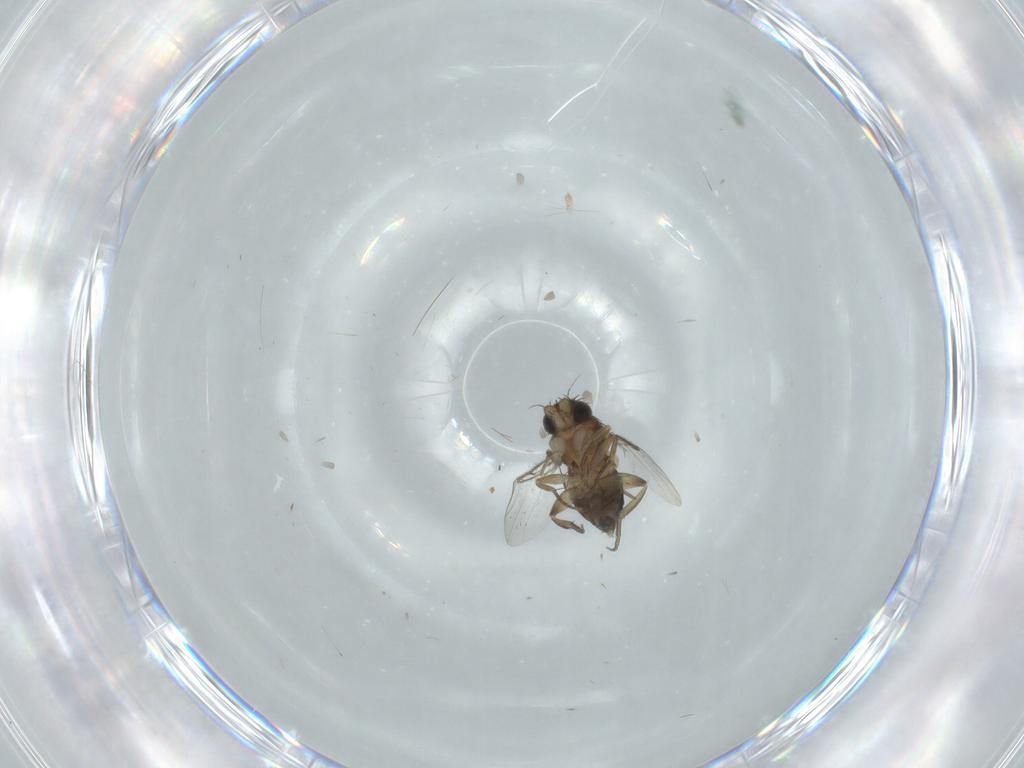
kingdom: Animalia
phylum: Arthropoda
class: Insecta
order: Diptera
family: Phoridae
